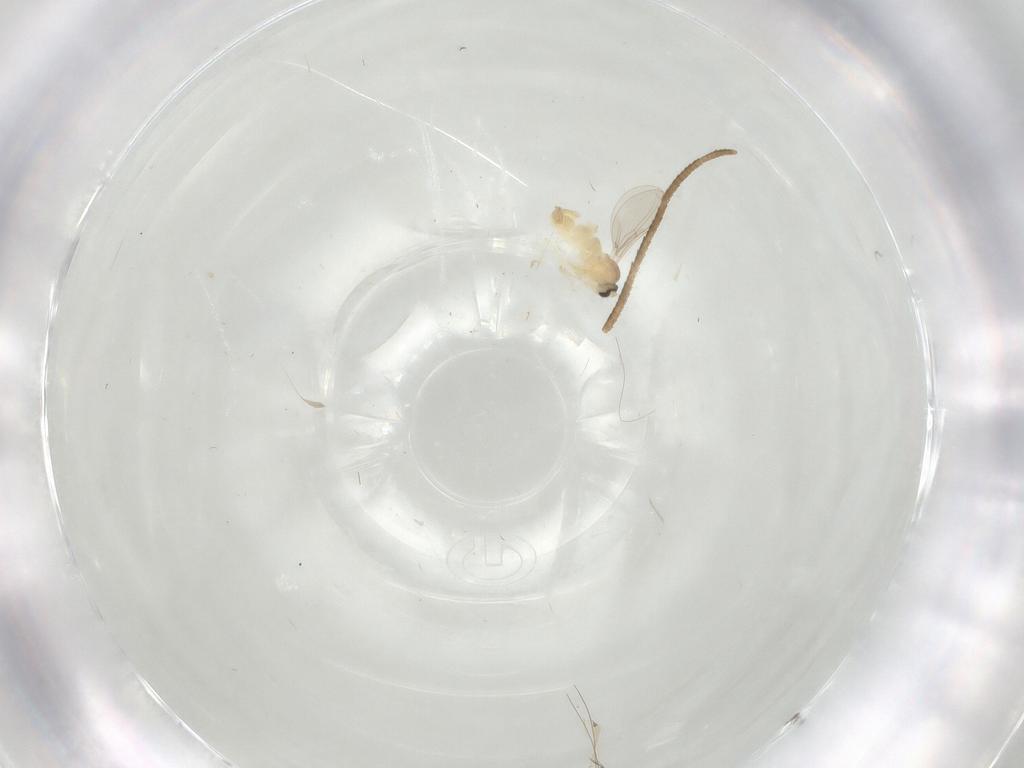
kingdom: Animalia
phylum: Arthropoda
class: Insecta
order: Diptera
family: Cecidomyiidae
